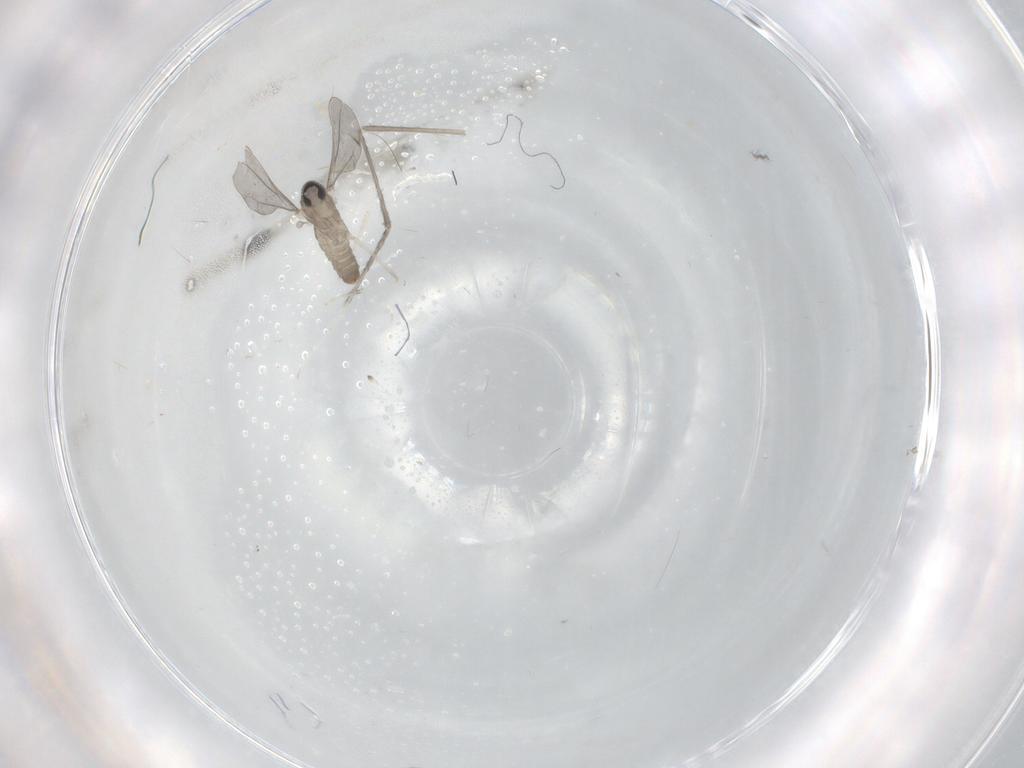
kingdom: Animalia
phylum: Arthropoda
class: Insecta
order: Diptera
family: Cecidomyiidae
